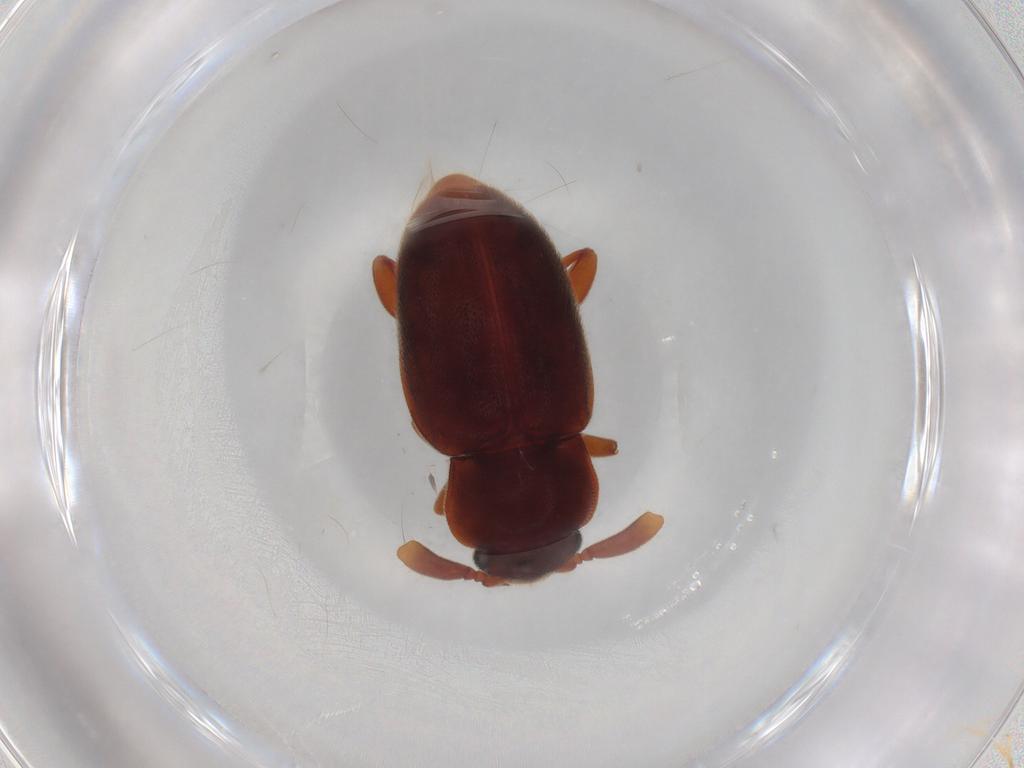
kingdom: Animalia
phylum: Arthropoda
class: Insecta
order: Coleoptera
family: Endomychidae
